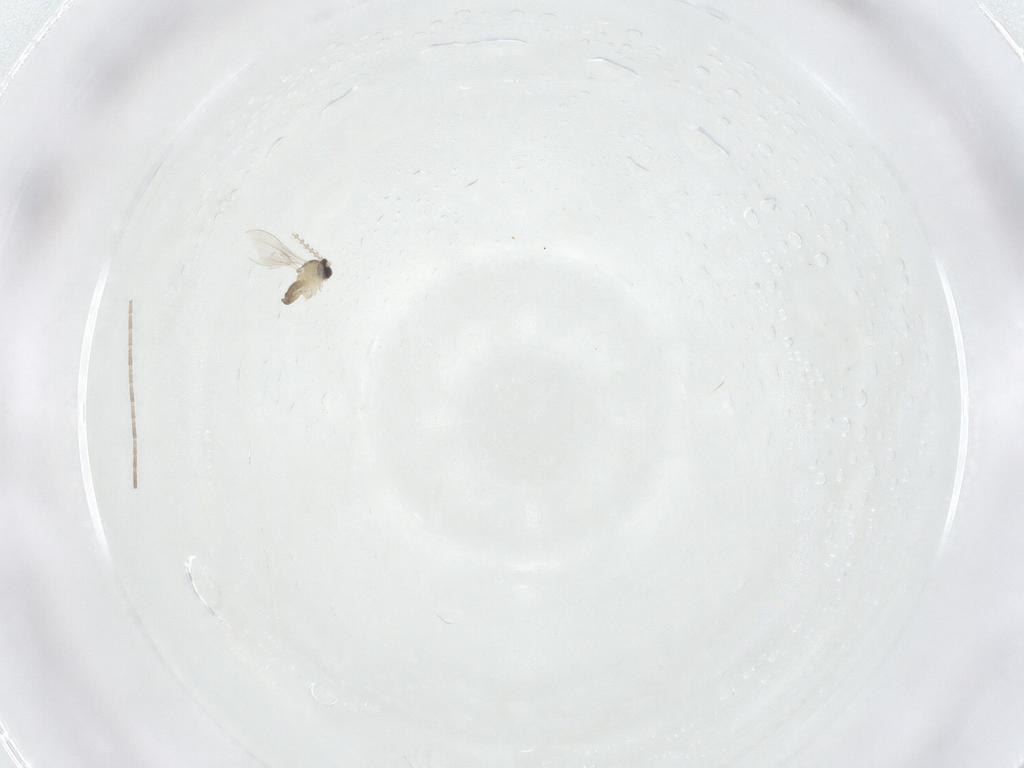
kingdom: Animalia
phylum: Arthropoda
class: Insecta
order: Diptera
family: Cecidomyiidae
